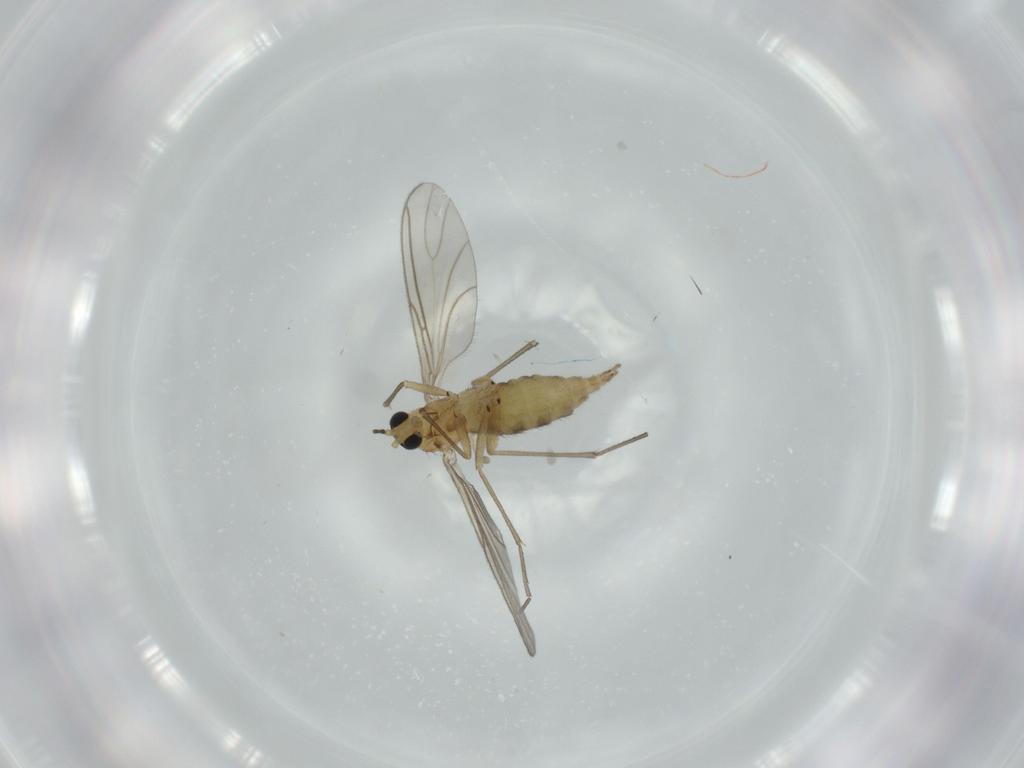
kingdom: Animalia
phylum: Arthropoda
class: Insecta
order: Diptera
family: Sciaridae
